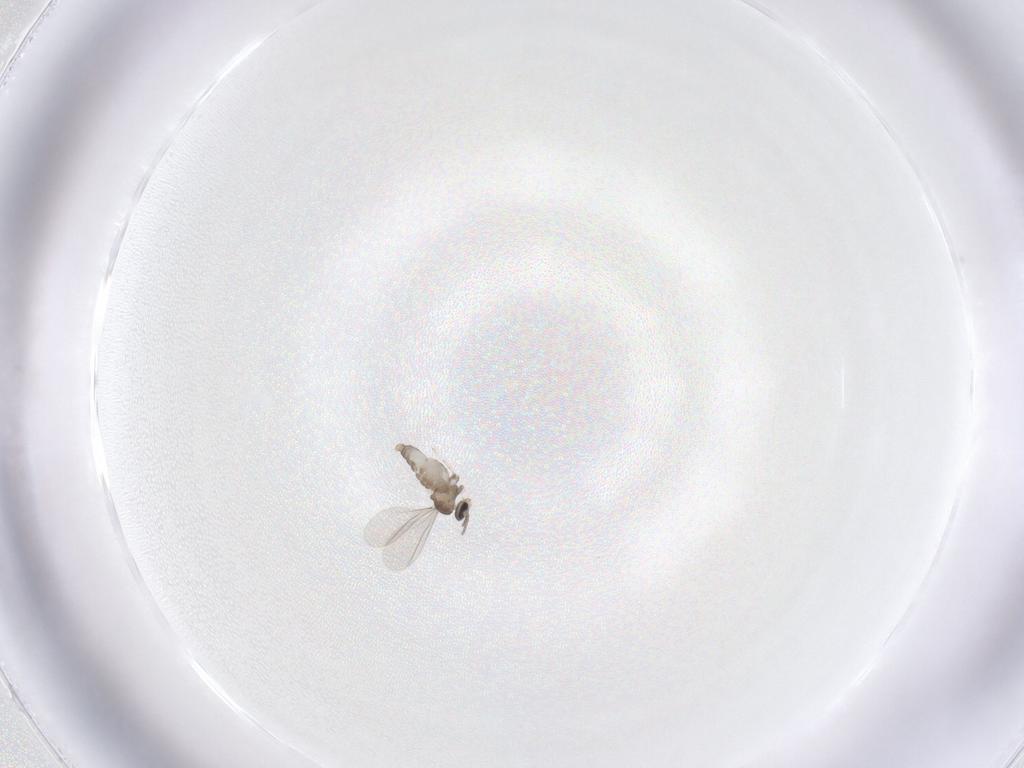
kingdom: Animalia
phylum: Arthropoda
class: Insecta
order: Diptera
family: Cecidomyiidae
